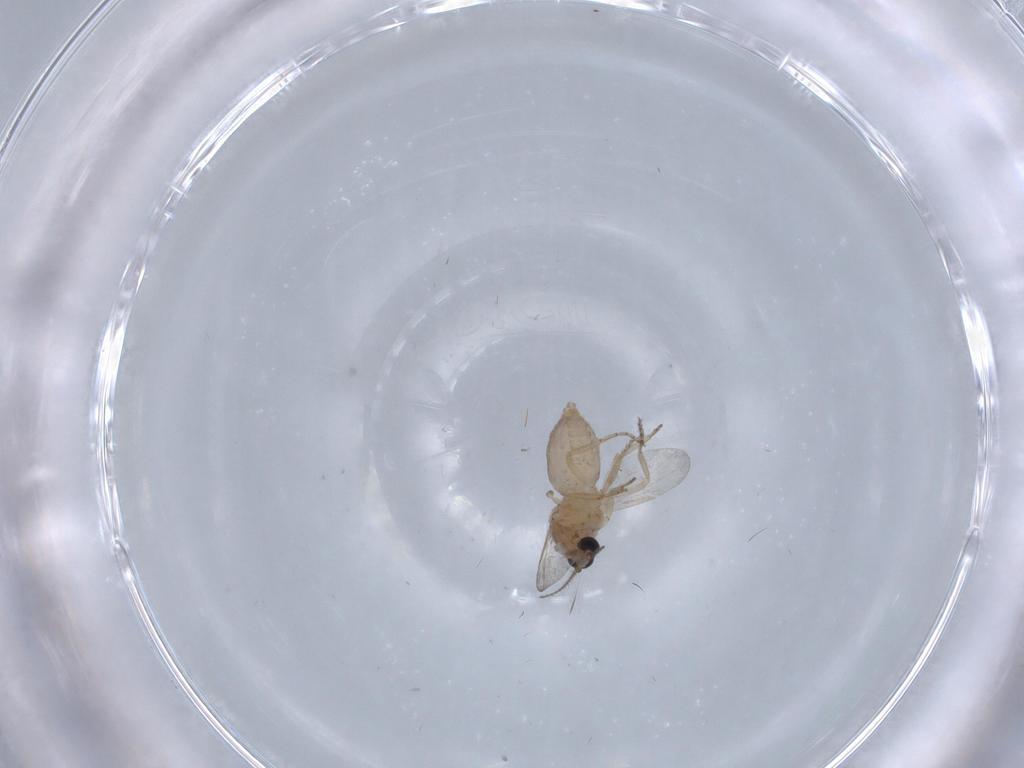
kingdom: Animalia
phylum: Arthropoda
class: Insecta
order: Diptera
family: Ceratopogonidae
